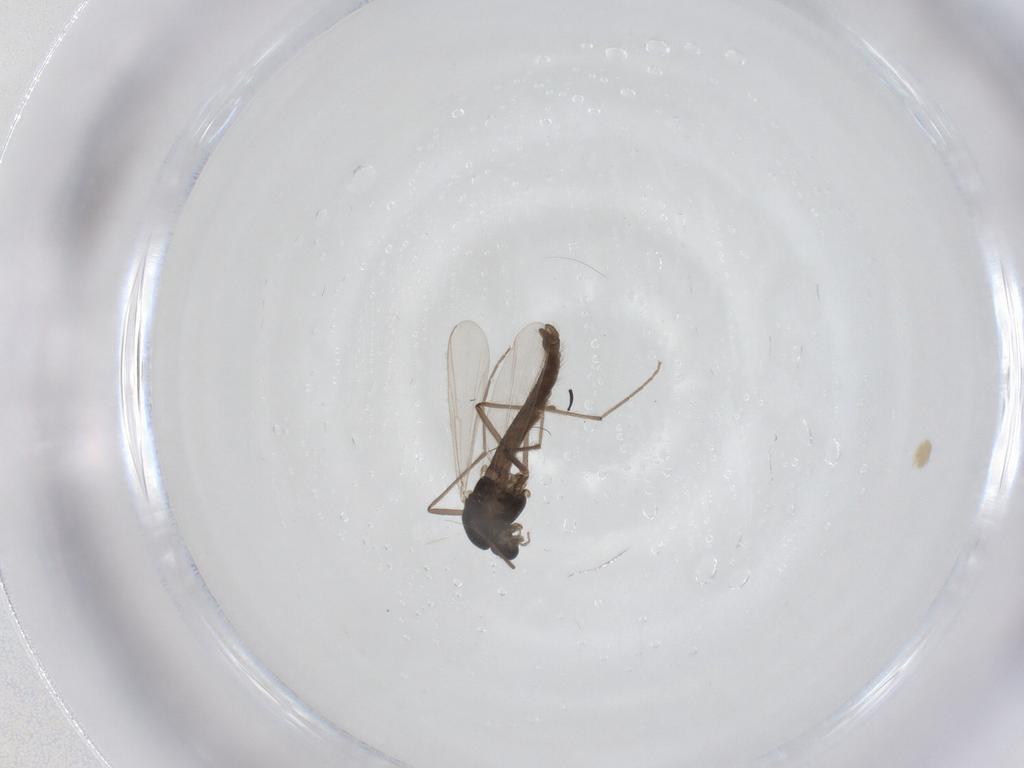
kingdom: Animalia
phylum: Arthropoda
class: Insecta
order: Diptera
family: Chironomidae
